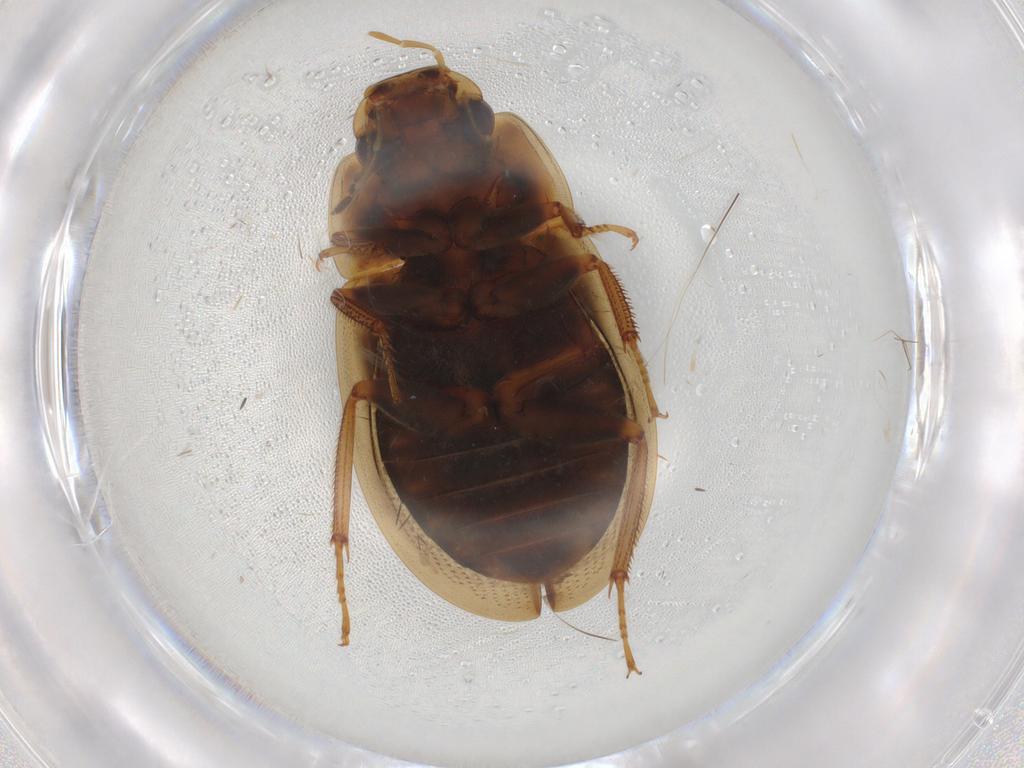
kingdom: Animalia
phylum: Arthropoda
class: Insecta
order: Coleoptera
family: Hydrophilidae
